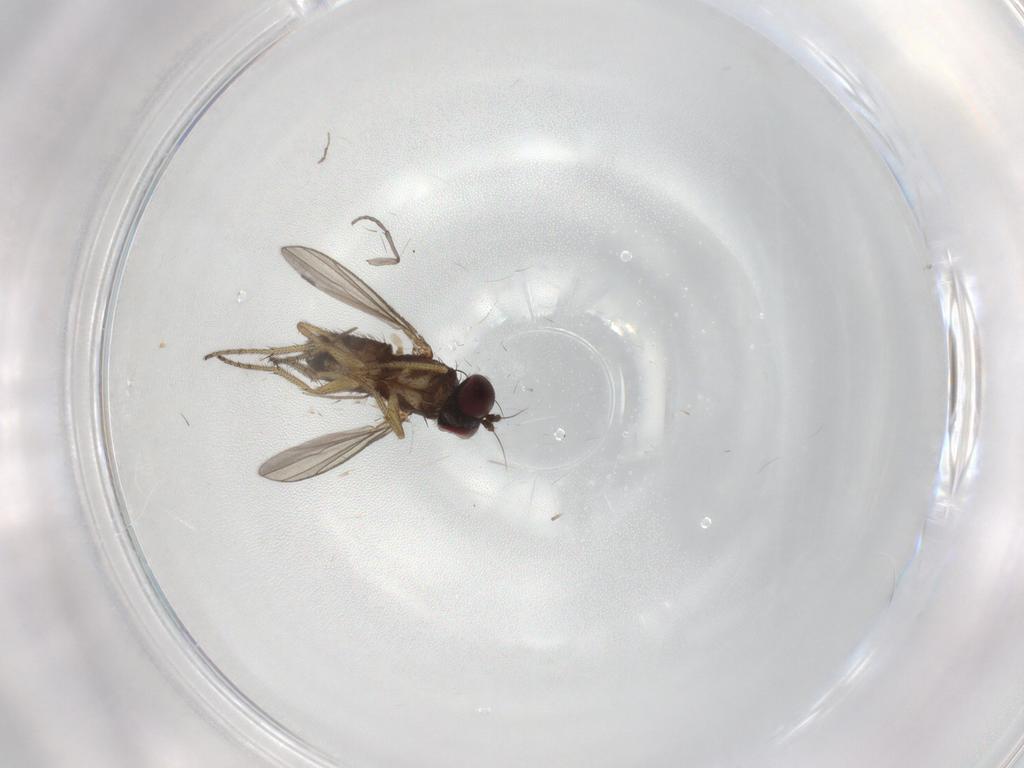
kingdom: Animalia
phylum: Arthropoda
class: Insecta
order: Diptera
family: Sciaridae
